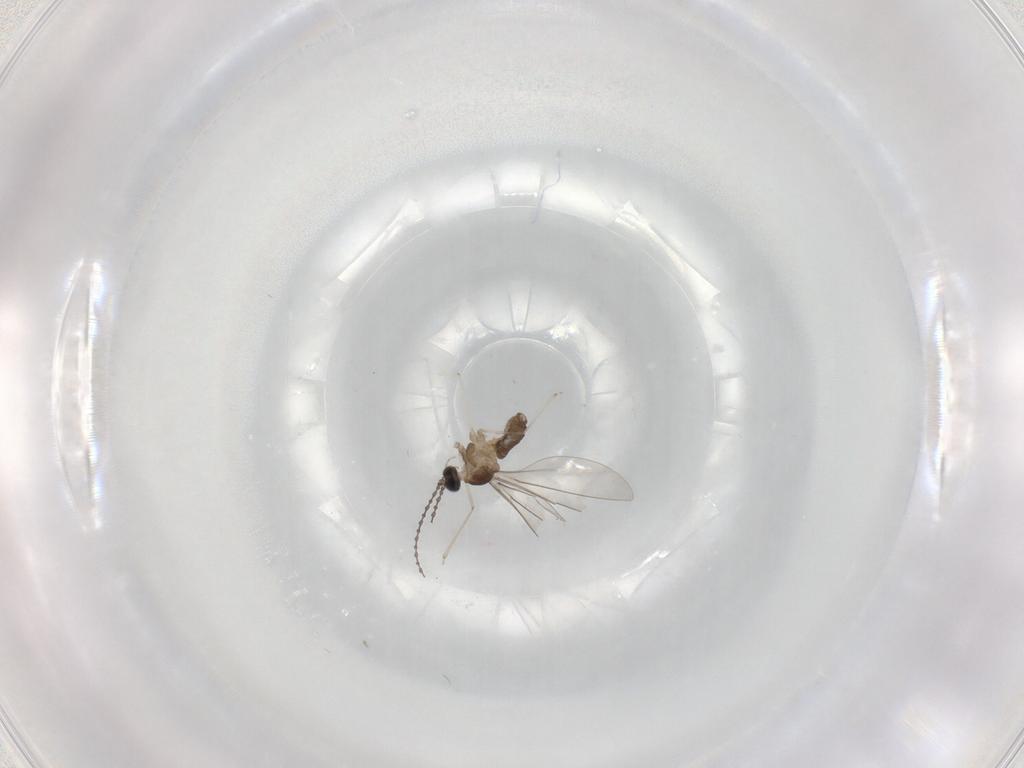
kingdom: Animalia
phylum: Arthropoda
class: Insecta
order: Diptera
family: Cecidomyiidae
